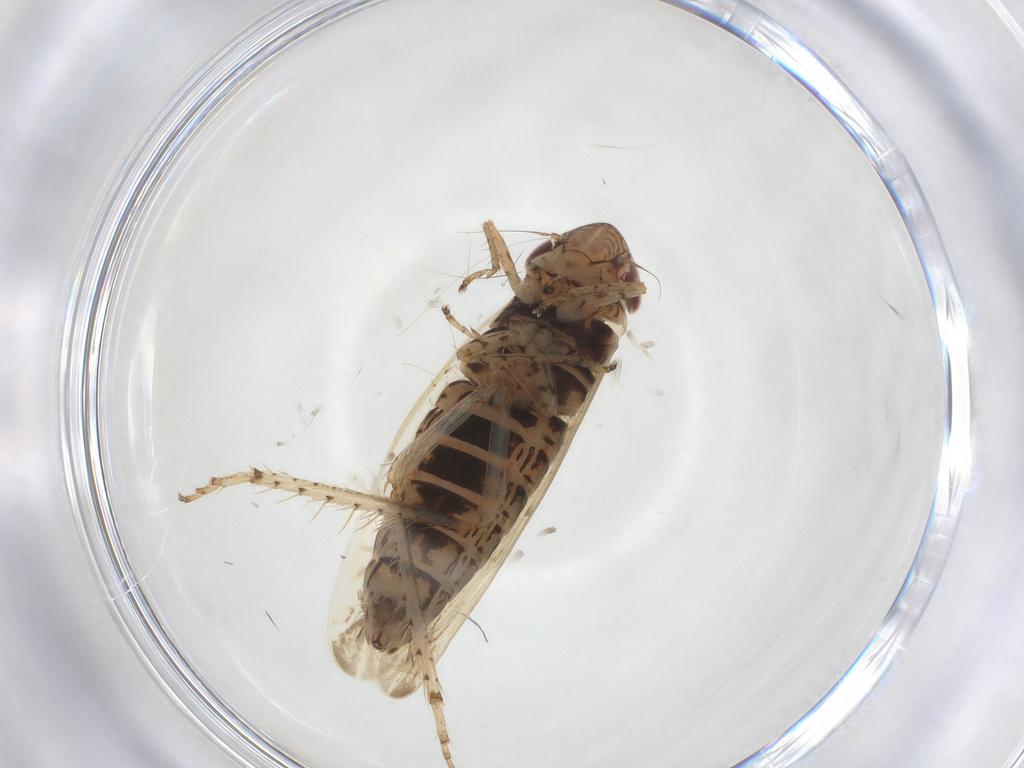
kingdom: Animalia
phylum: Arthropoda
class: Insecta
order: Hemiptera
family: Cicadellidae
